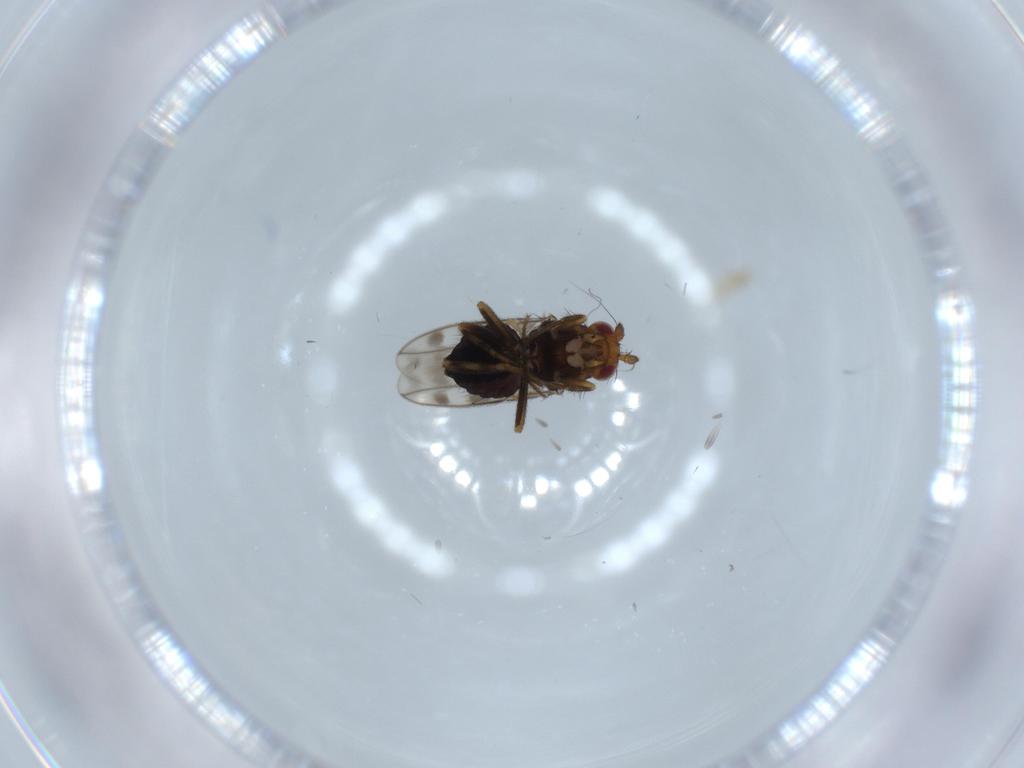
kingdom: Animalia
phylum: Arthropoda
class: Insecta
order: Diptera
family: Sphaeroceridae
